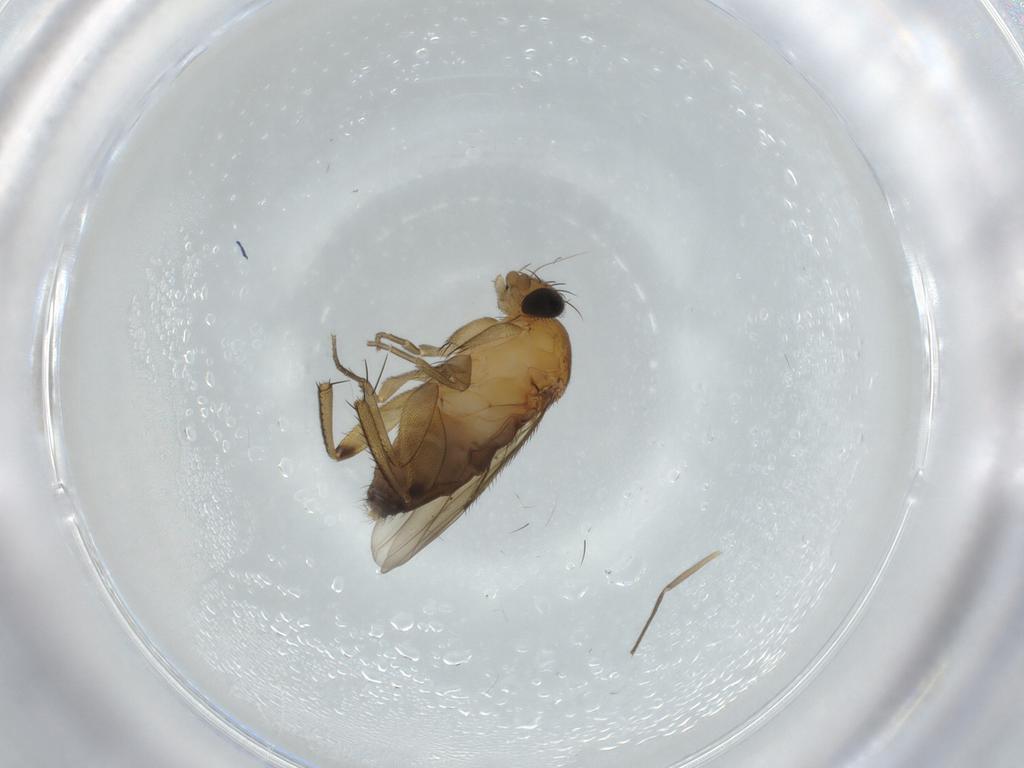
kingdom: Animalia
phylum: Arthropoda
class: Insecta
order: Diptera
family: Phoridae
